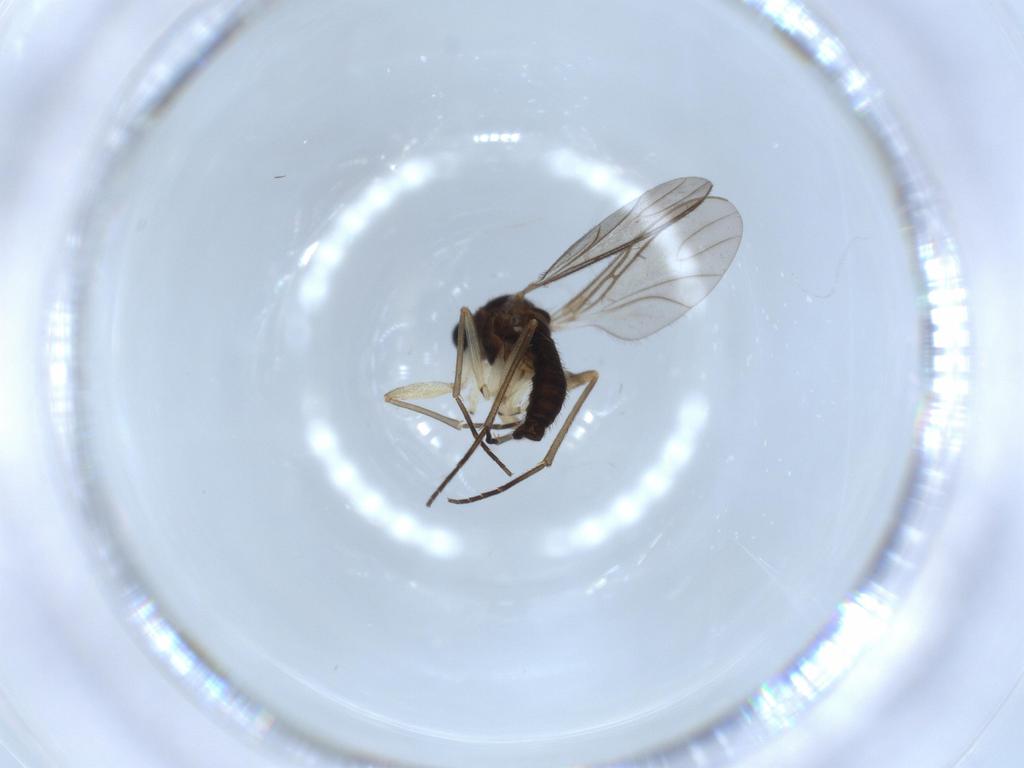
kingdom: Animalia
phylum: Arthropoda
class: Insecta
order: Diptera
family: Cecidomyiidae
